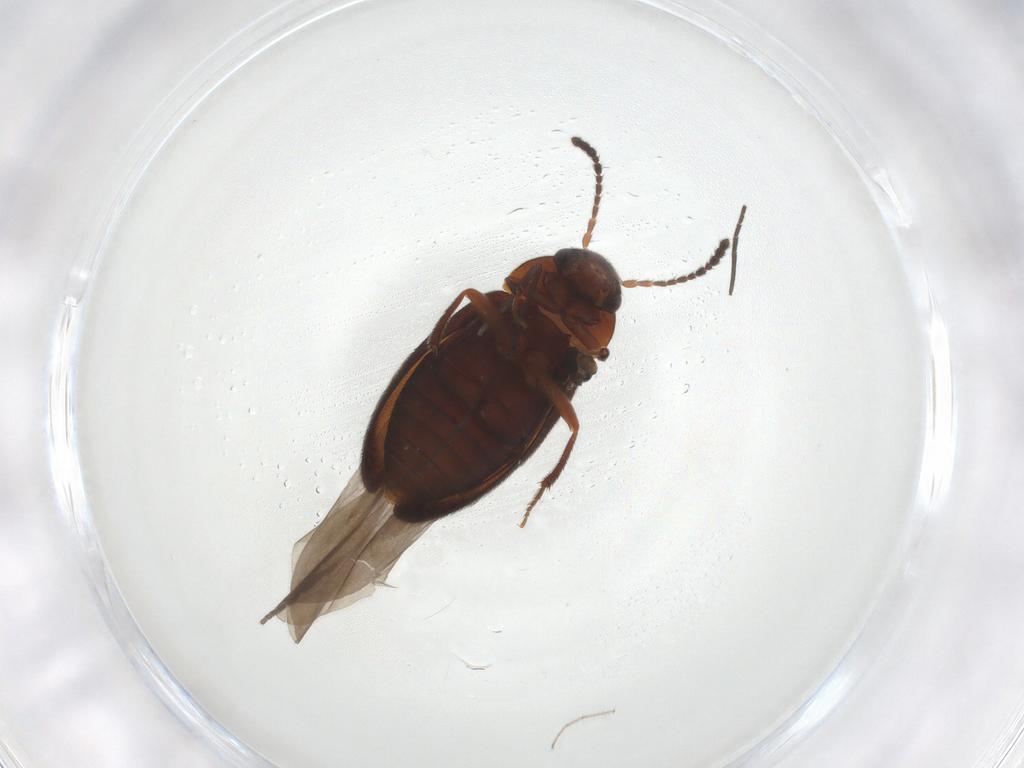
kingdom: Animalia
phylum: Arthropoda
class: Insecta
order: Coleoptera
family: Leiodidae
